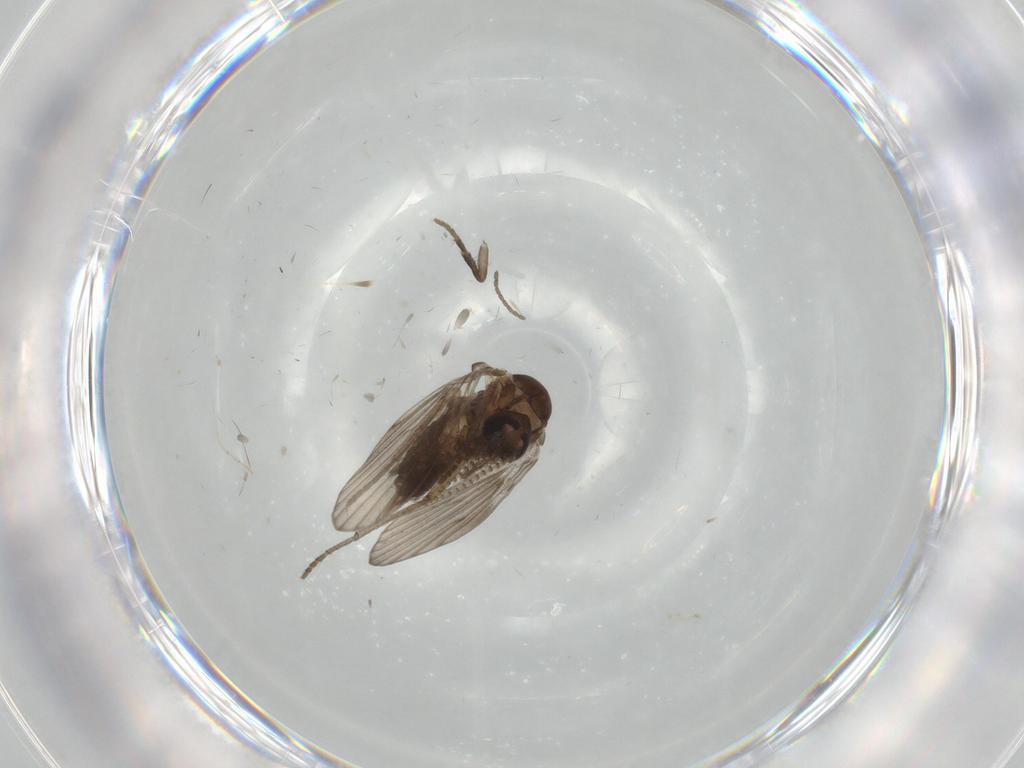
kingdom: Animalia
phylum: Arthropoda
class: Insecta
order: Diptera
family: Psychodidae
